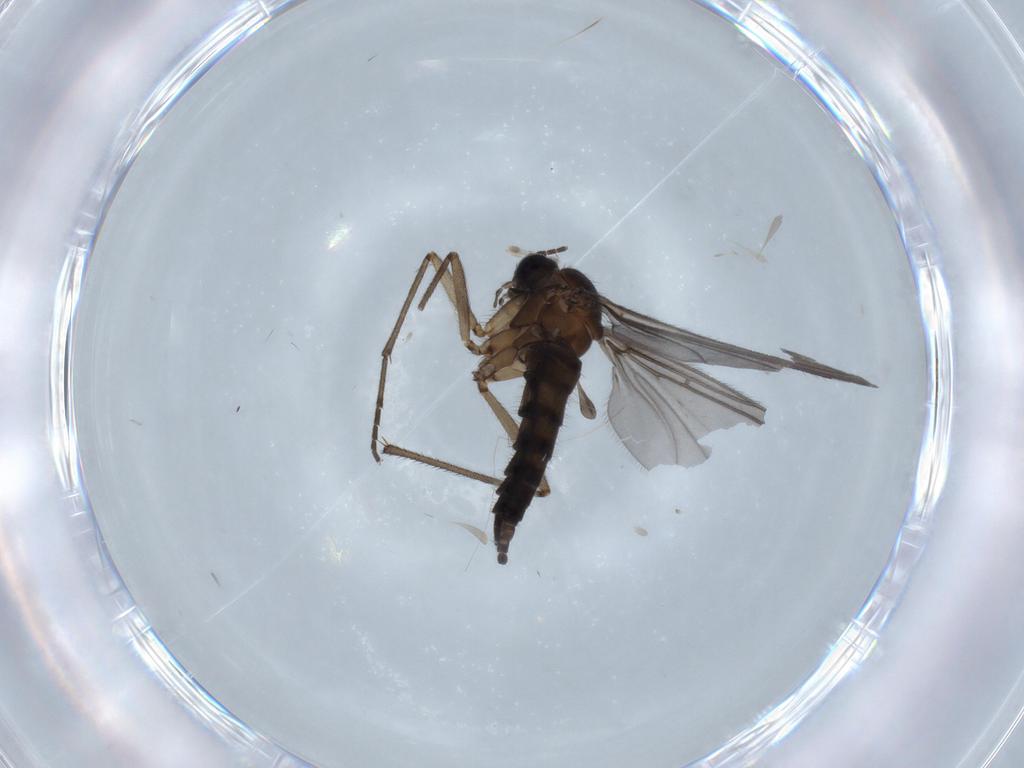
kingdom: Animalia
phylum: Arthropoda
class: Insecta
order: Diptera
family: Sciaridae
